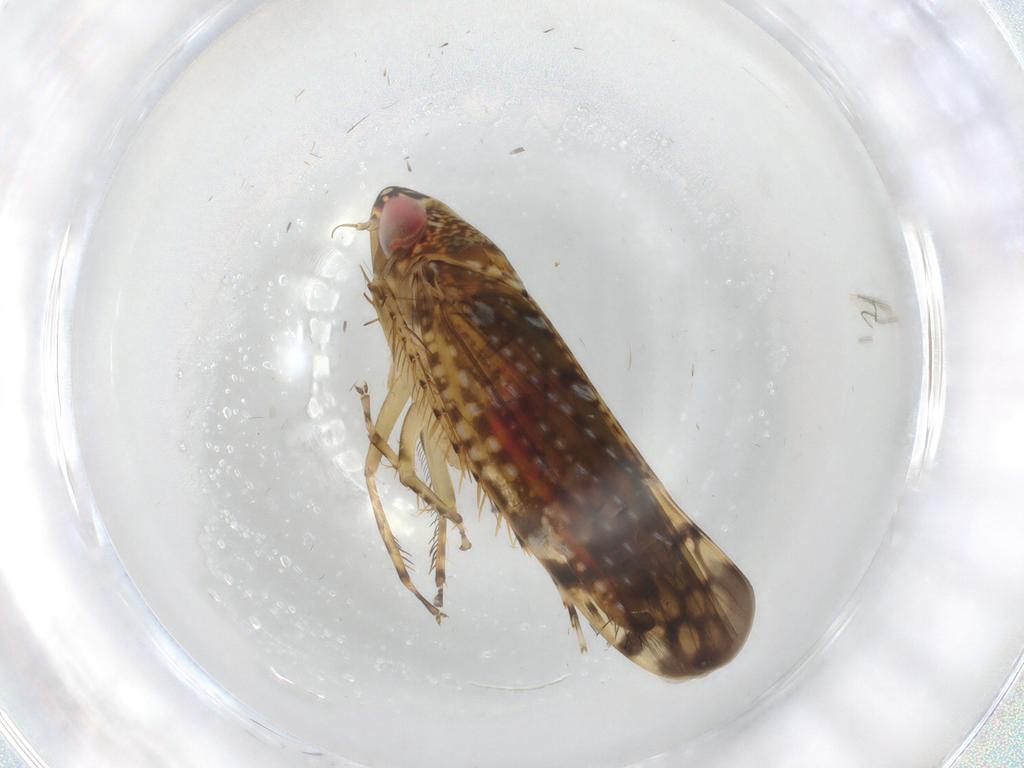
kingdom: Animalia
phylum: Arthropoda
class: Insecta
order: Hemiptera
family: Cicadellidae
